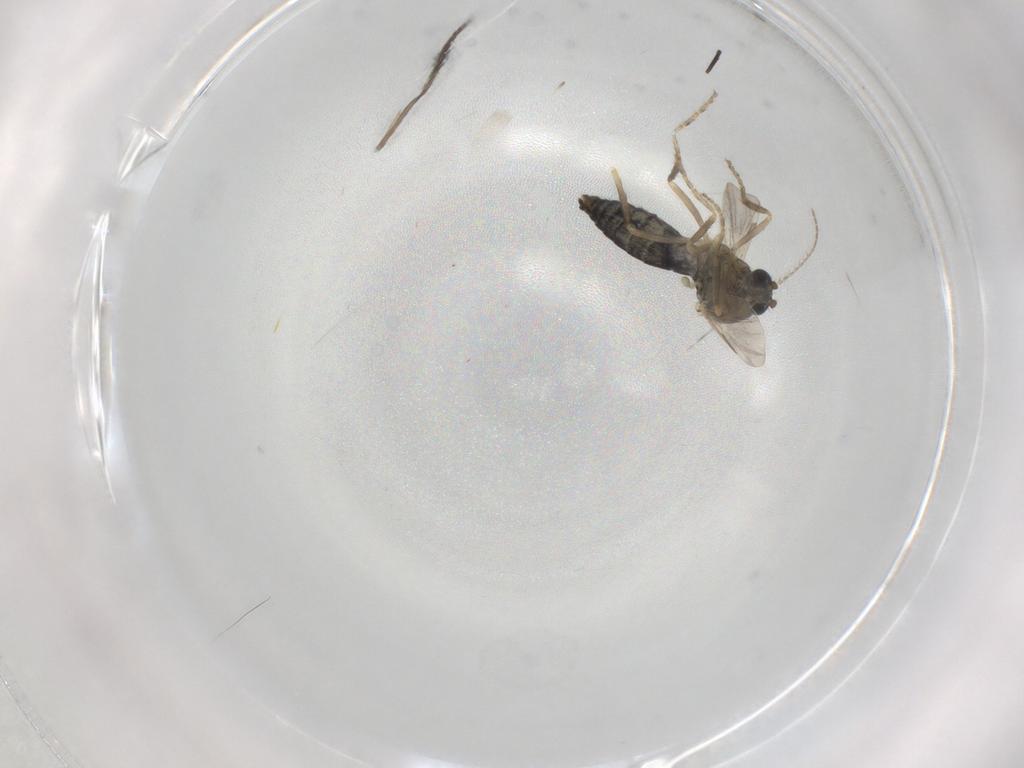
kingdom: Animalia
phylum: Arthropoda
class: Insecta
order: Diptera
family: Sciaridae
